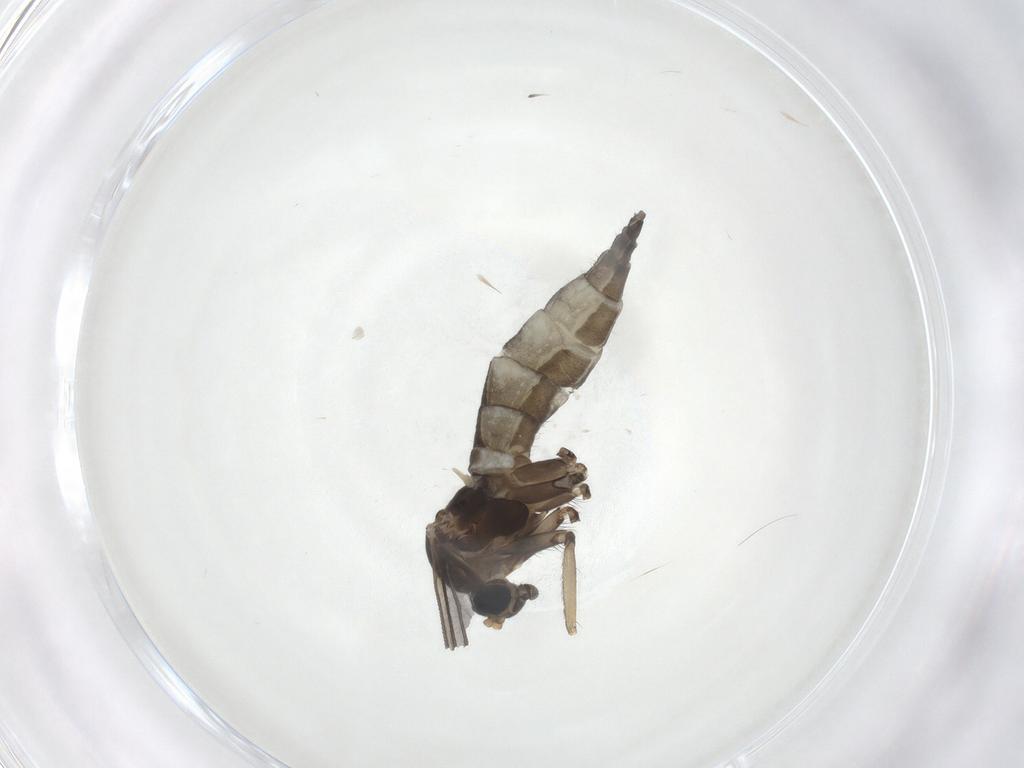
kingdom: Animalia
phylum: Arthropoda
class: Insecta
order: Diptera
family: Sciaridae
